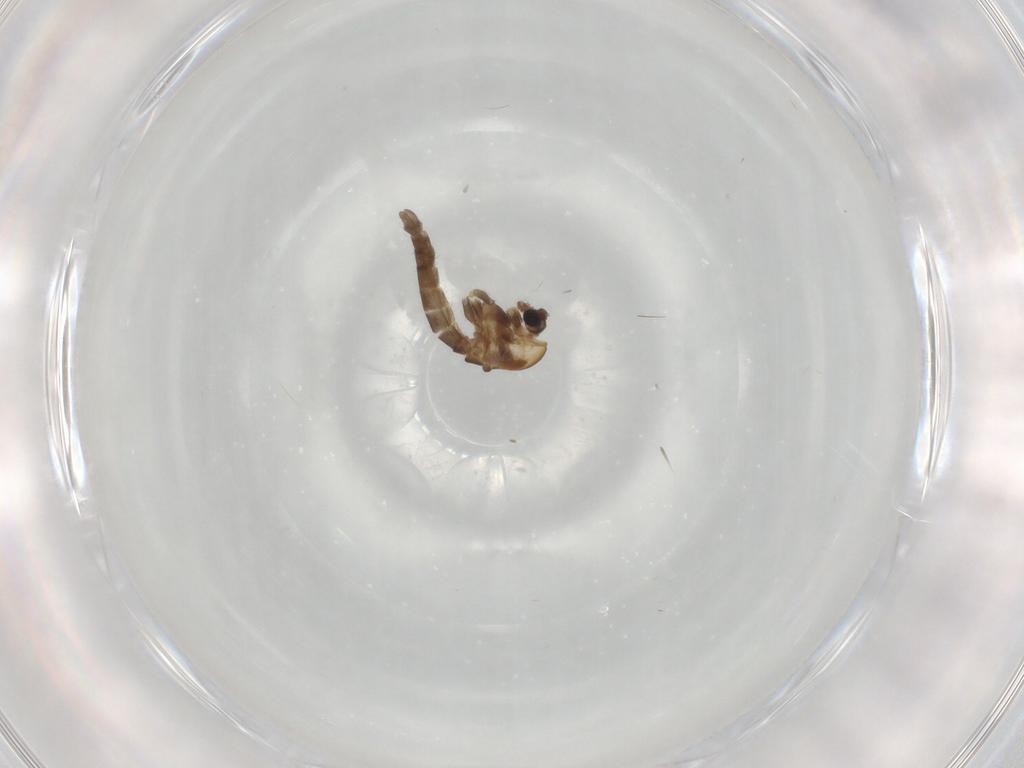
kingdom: Animalia
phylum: Arthropoda
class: Insecta
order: Diptera
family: Chironomidae
